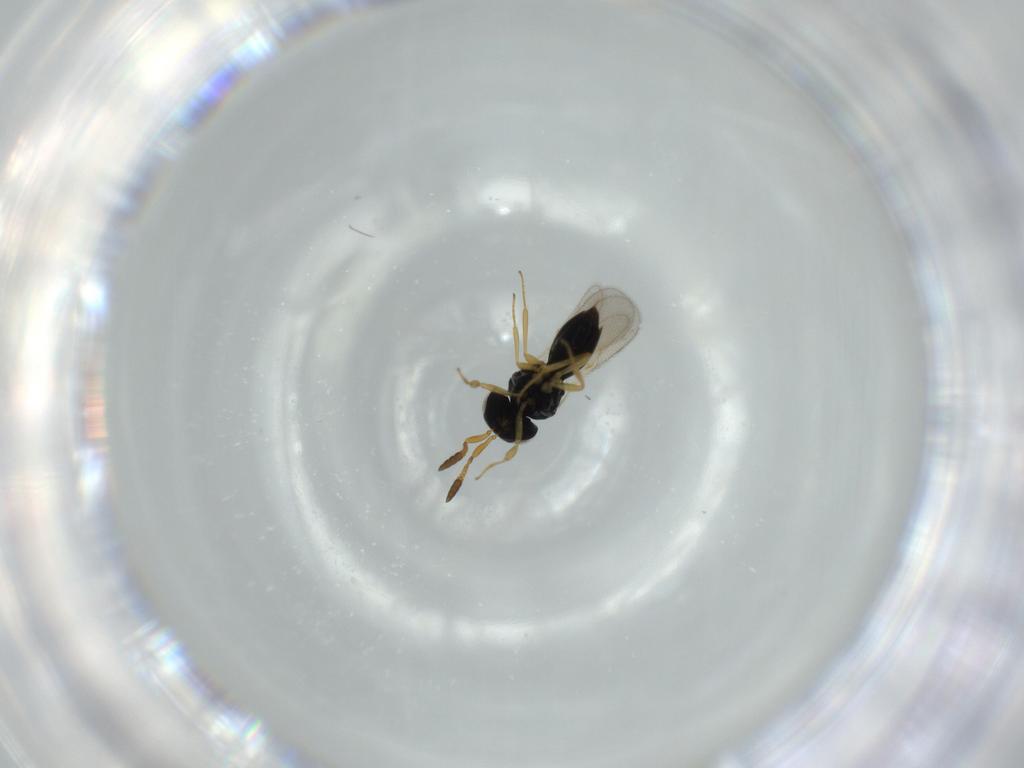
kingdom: Animalia
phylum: Arthropoda
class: Insecta
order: Hymenoptera
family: Scelionidae
